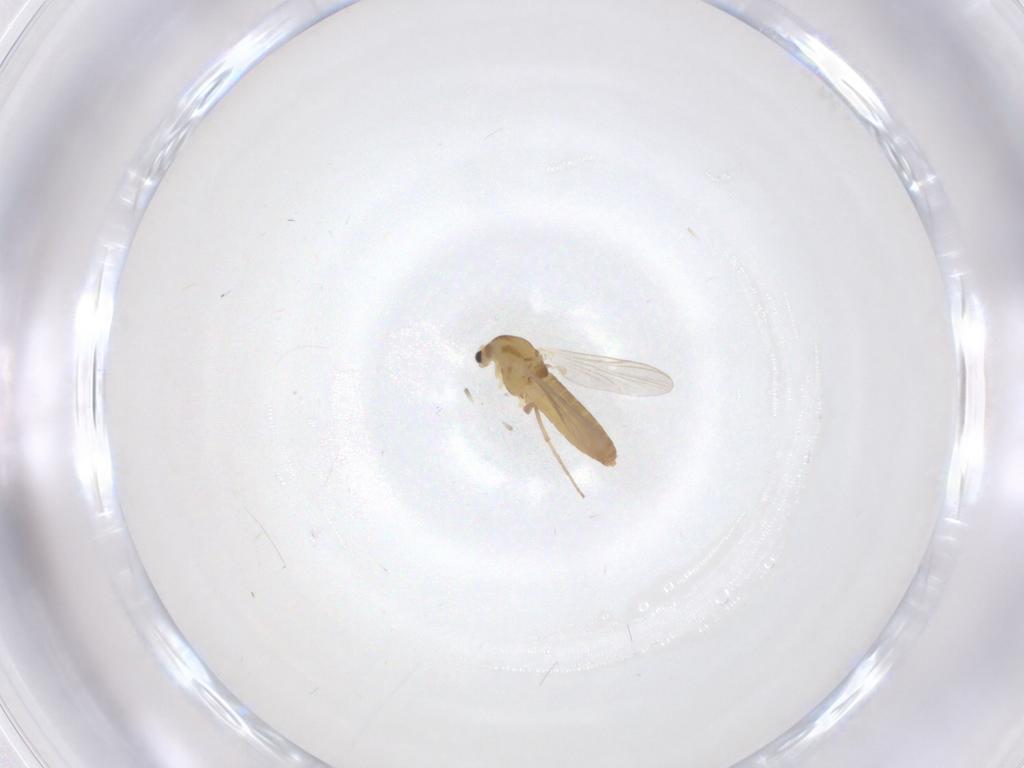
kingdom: Animalia
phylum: Arthropoda
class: Insecta
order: Diptera
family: Chironomidae
